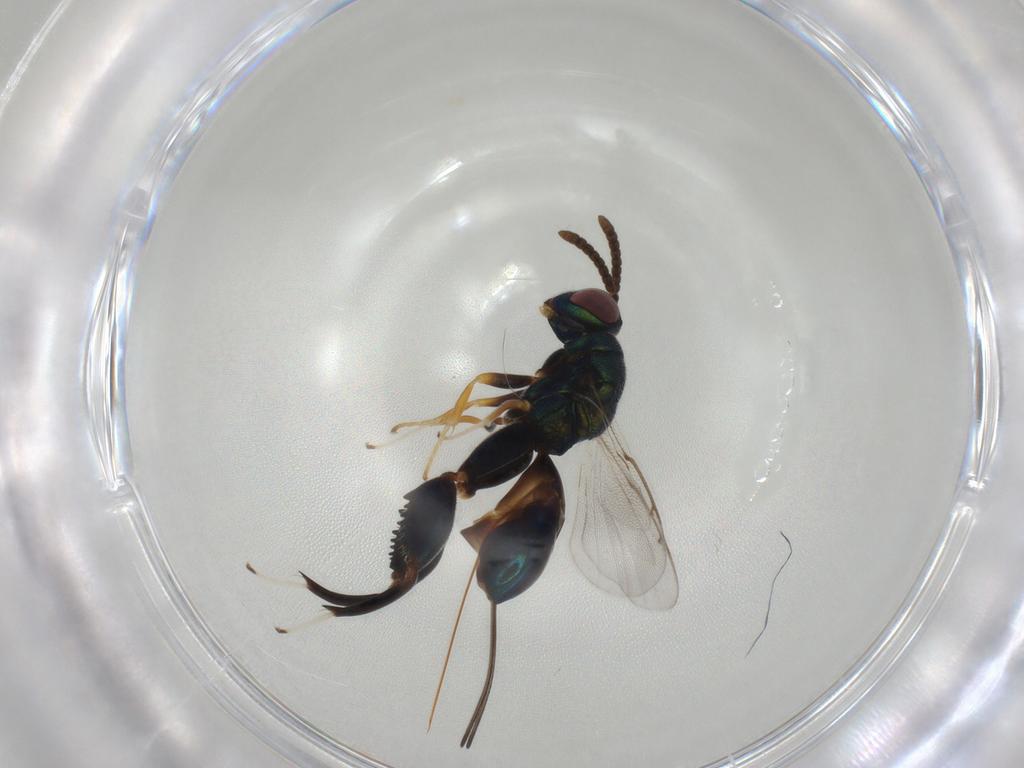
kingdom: Animalia
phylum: Arthropoda
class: Insecta
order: Hymenoptera
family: Torymidae
